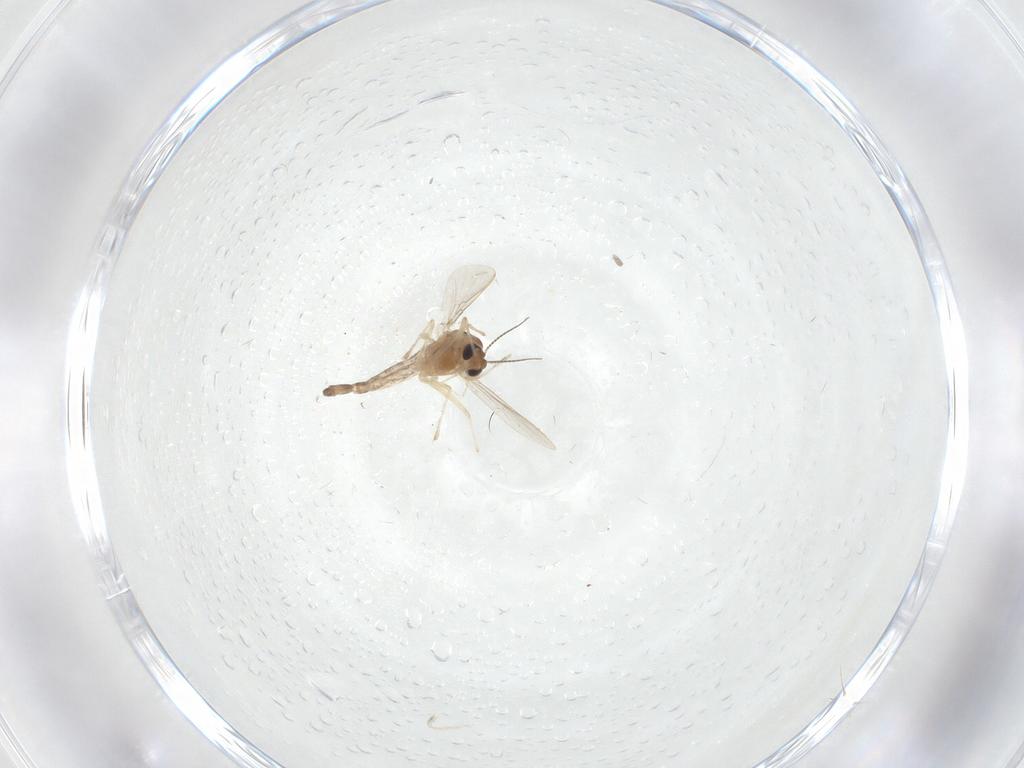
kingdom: Animalia
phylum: Arthropoda
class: Insecta
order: Diptera
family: Chironomidae
